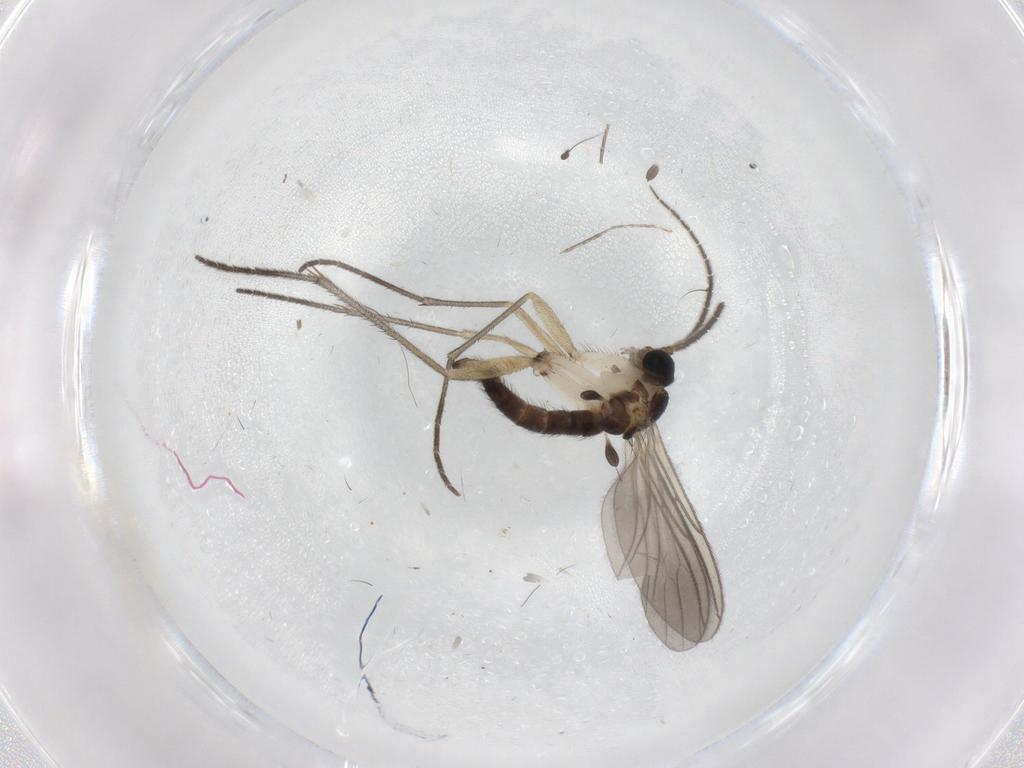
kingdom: Animalia
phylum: Arthropoda
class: Insecta
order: Diptera
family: Sciaridae
